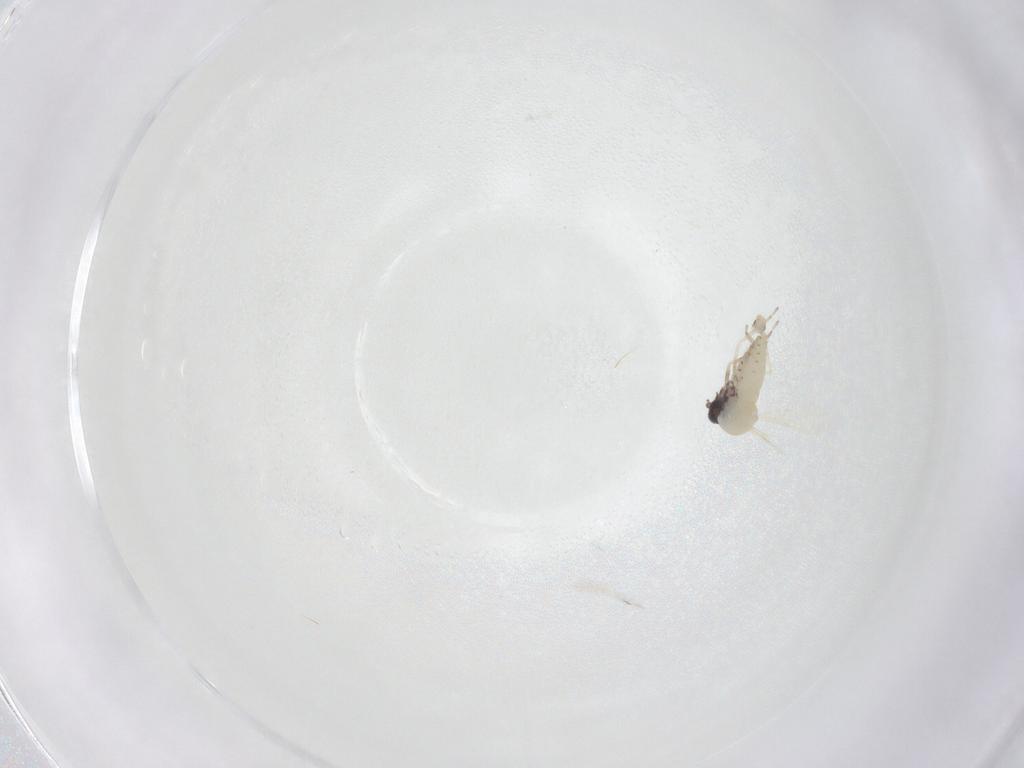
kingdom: Animalia
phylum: Arthropoda
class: Insecta
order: Diptera
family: Ceratopogonidae
